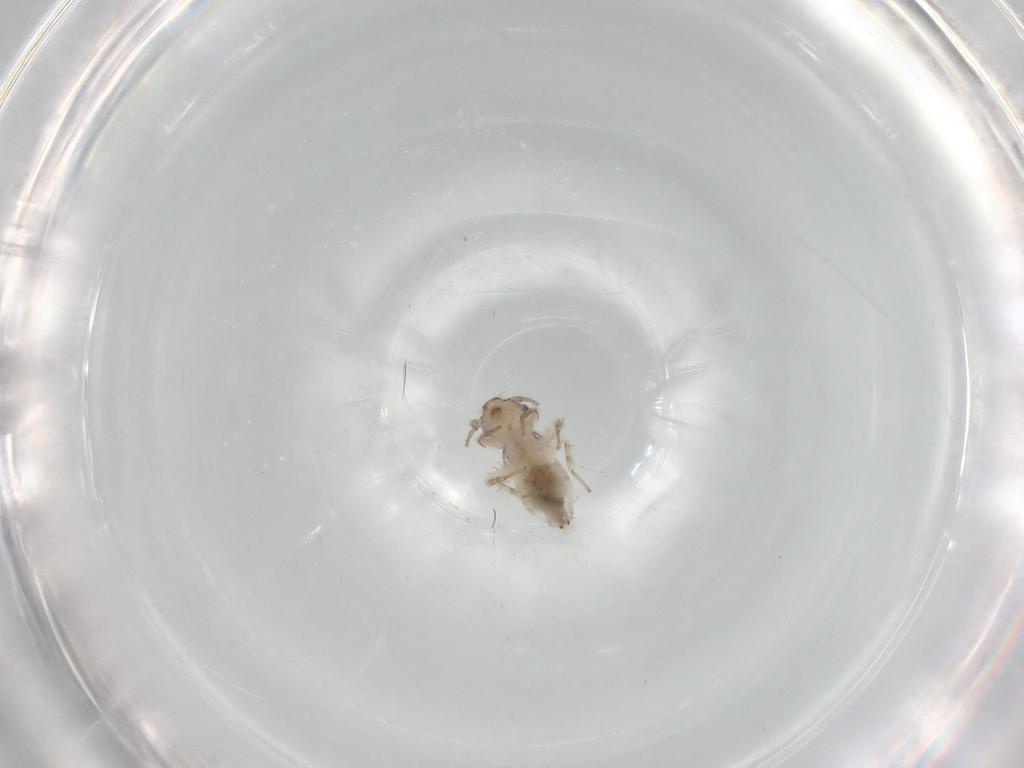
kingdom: Animalia
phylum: Arthropoda
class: Insecta
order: Psocodea
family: Lepidopsocidae
